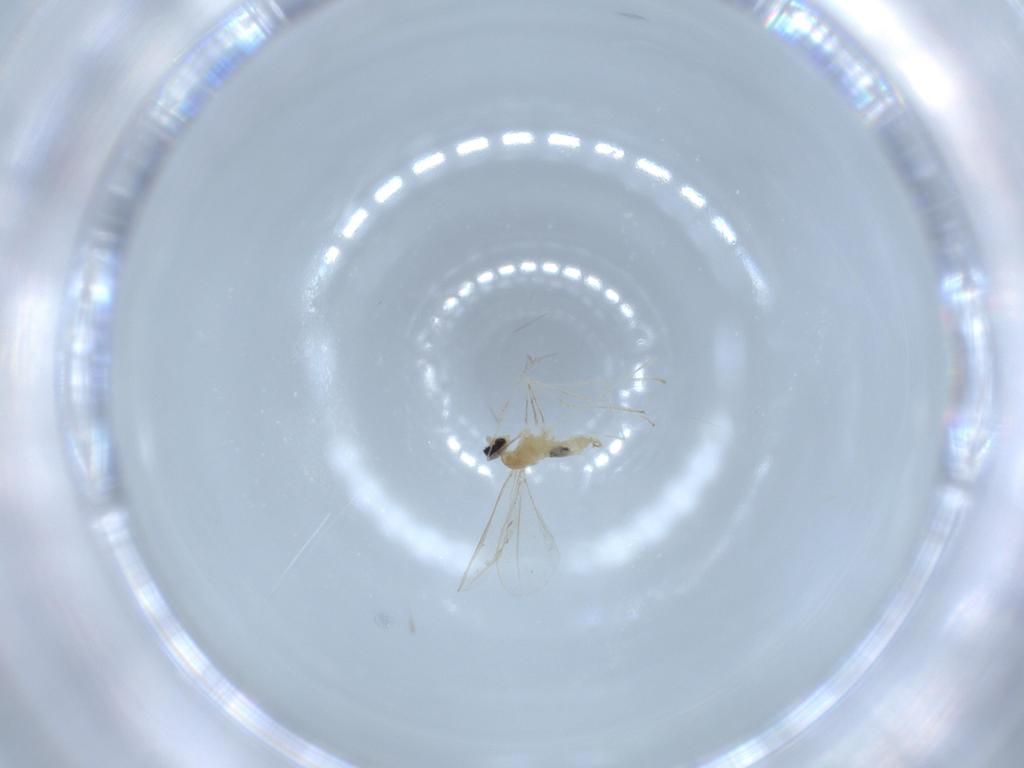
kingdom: Animalia
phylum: Arthropoda
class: Insecta
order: Diptera
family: Cecidomyiidae
